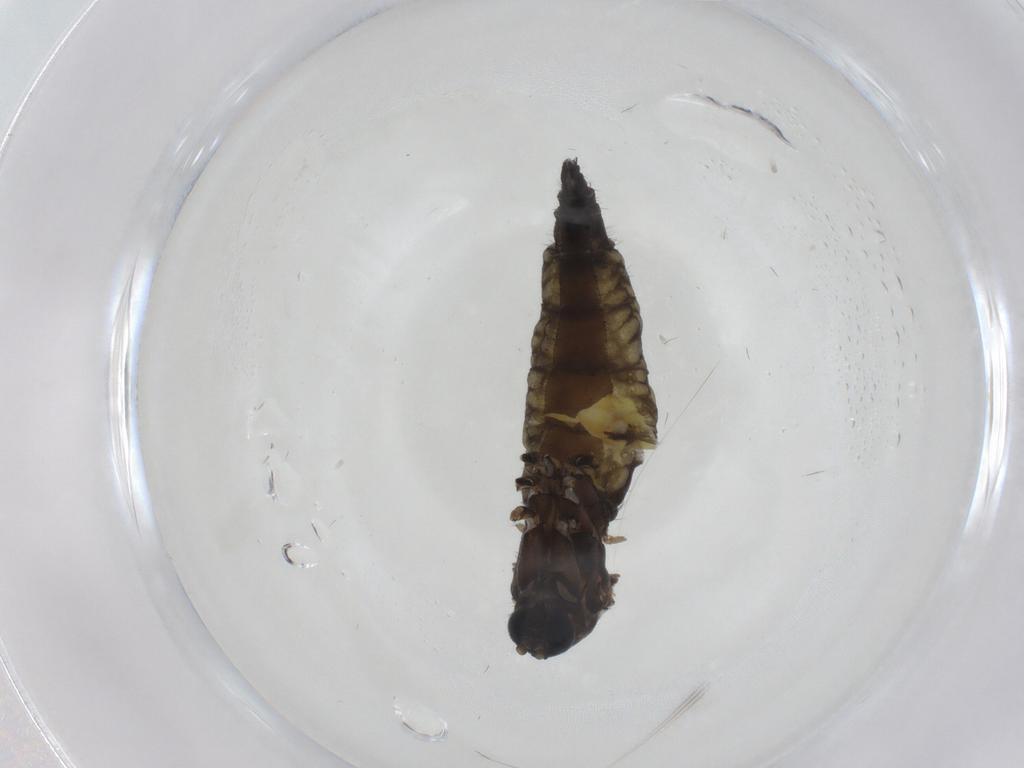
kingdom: Animalia
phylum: Arthropoda
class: Insecta
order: Diptera
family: Sciaridae
